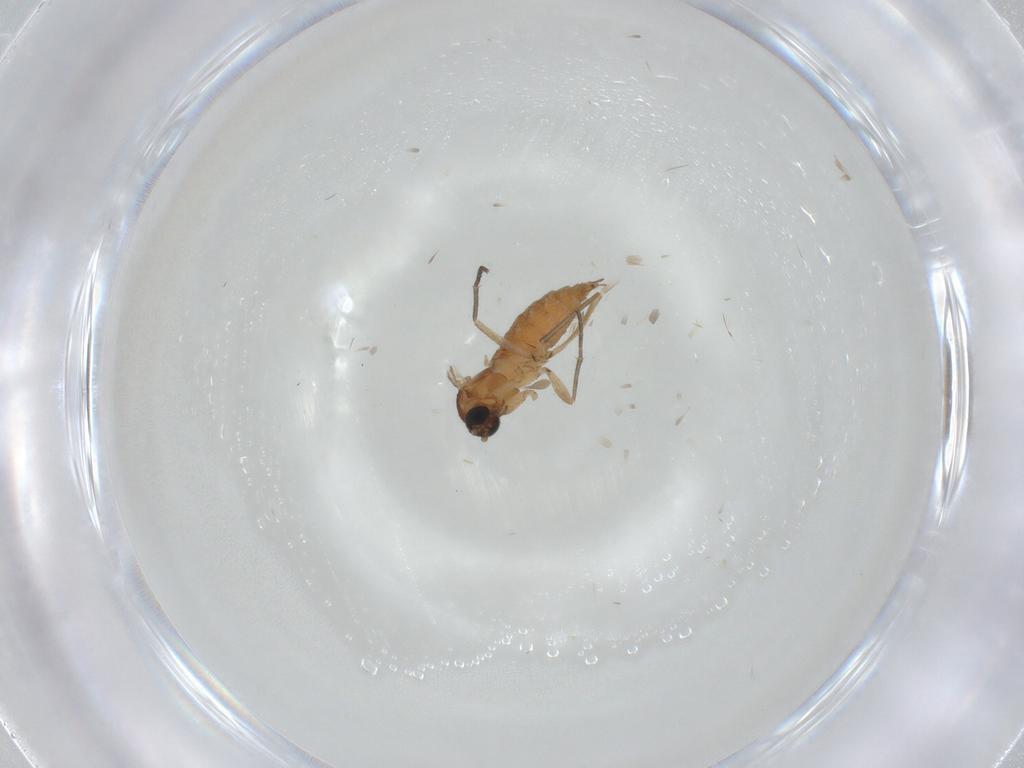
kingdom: Animalia
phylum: Arthropoda
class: Insecta
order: Diptera
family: Sciaridae
